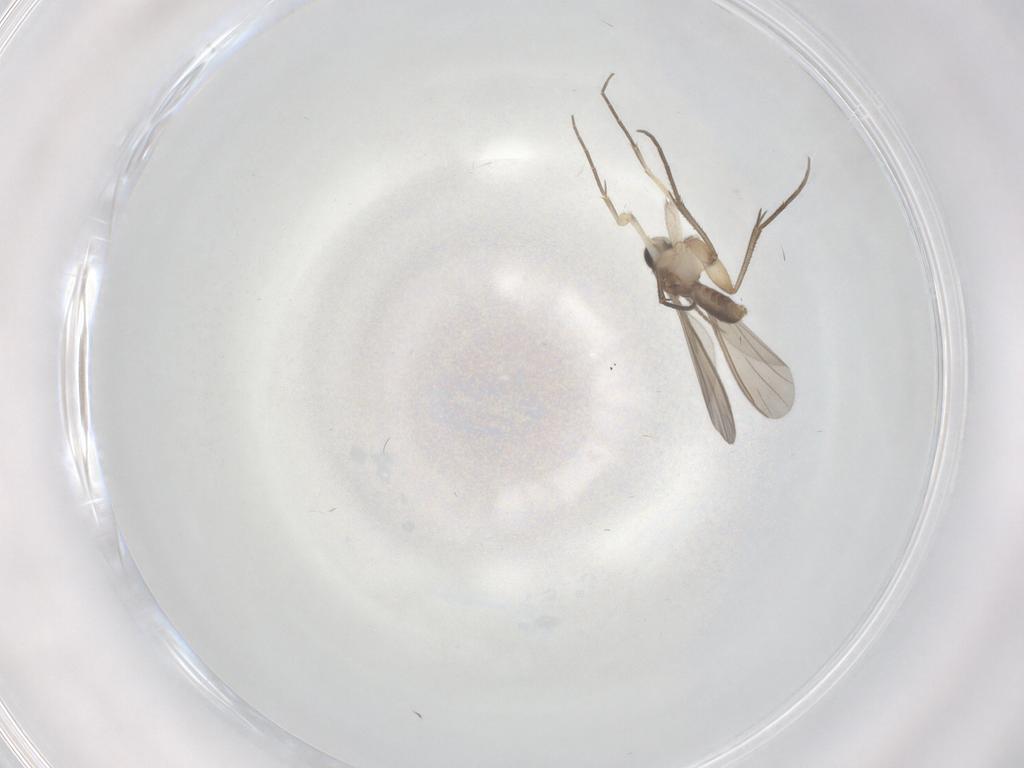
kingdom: Animalia
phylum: Arthropoda
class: Insecta
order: Diptera
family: Mycetophilidae
